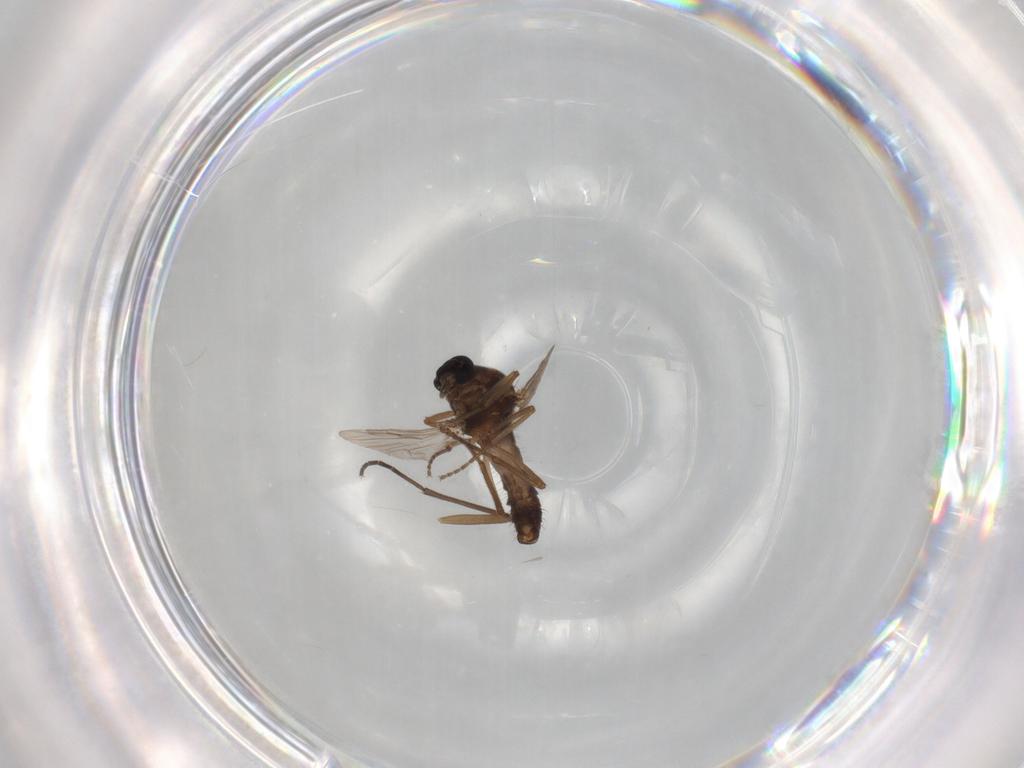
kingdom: Animalia
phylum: Arthropoda
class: Insecta
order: Diptera
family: Ceratopogonidae
